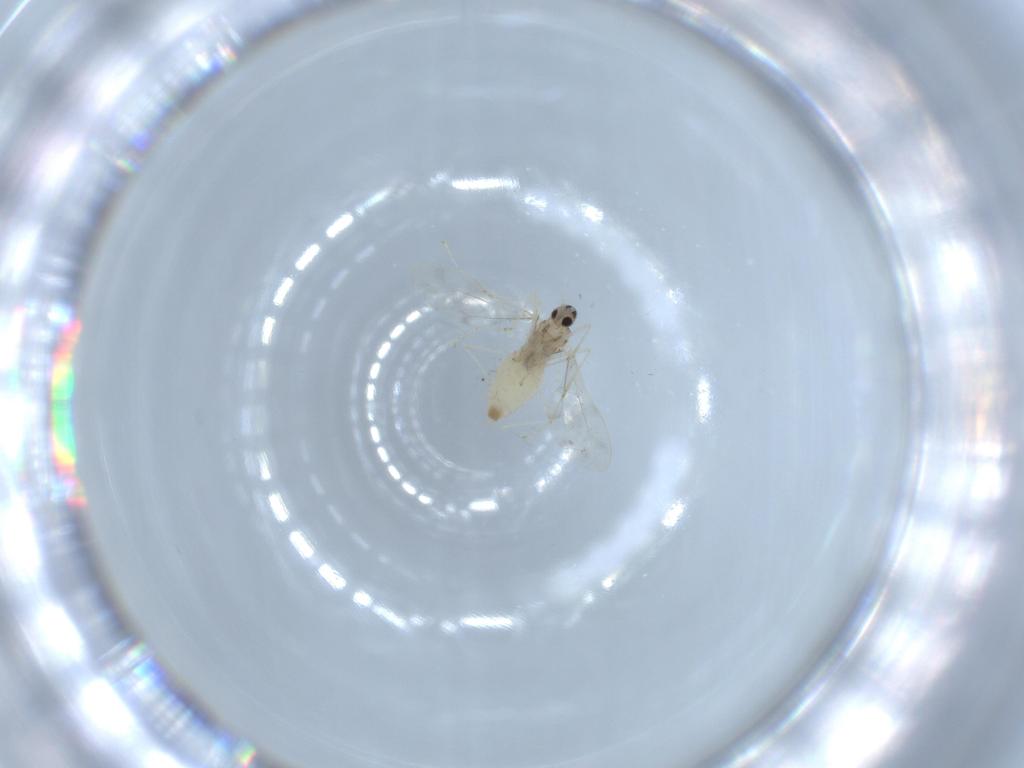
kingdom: Animalia
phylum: Arthropoda
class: Insecta
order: Diptera
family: Cecidomyiidae
